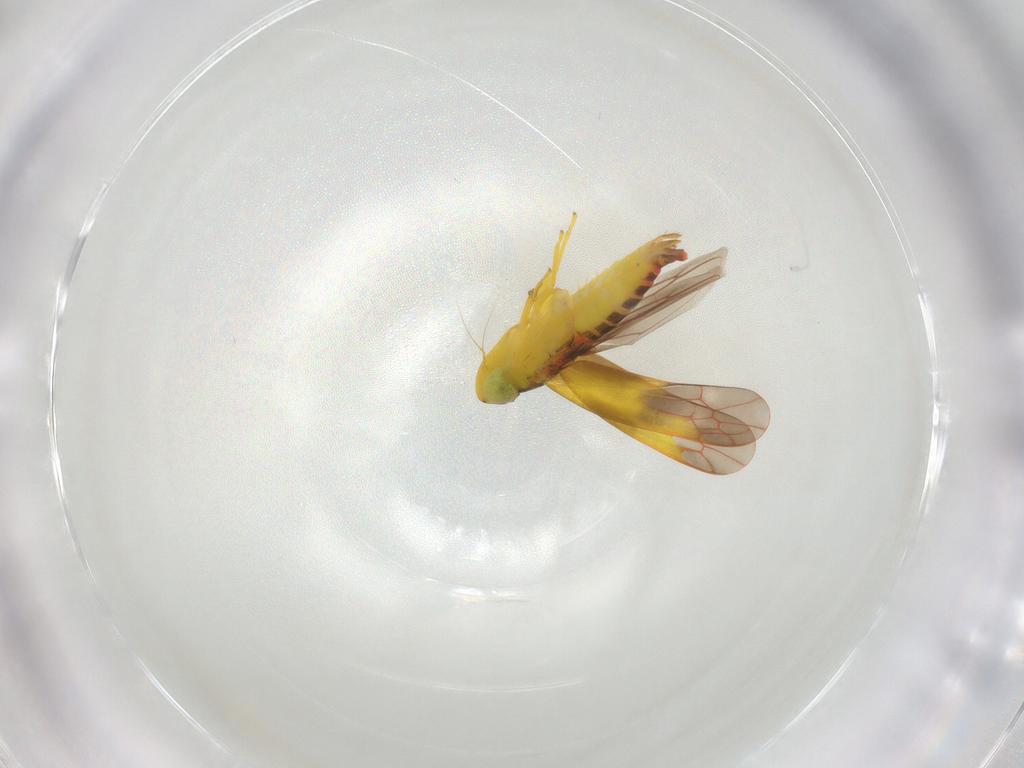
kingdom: Animalia
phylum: Arthropoda
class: Insecta
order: Hemiptera
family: Cicadellidae
